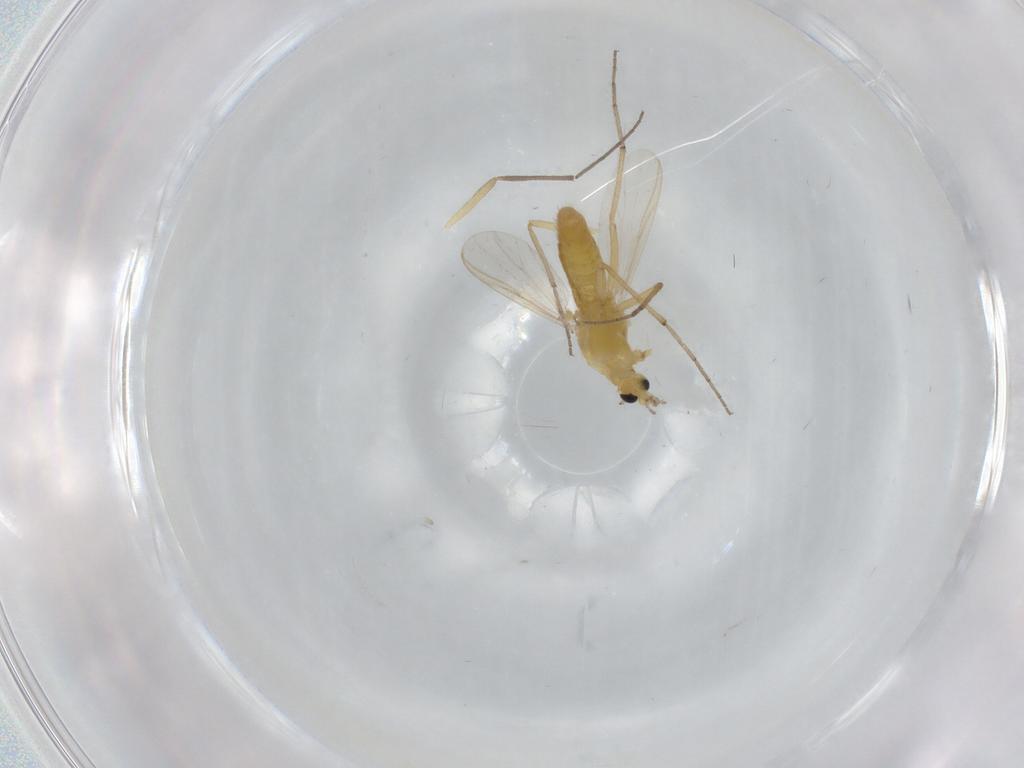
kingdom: Animalia
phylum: Arthropoda
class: Insecta
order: Diptera
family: Chironomidae
